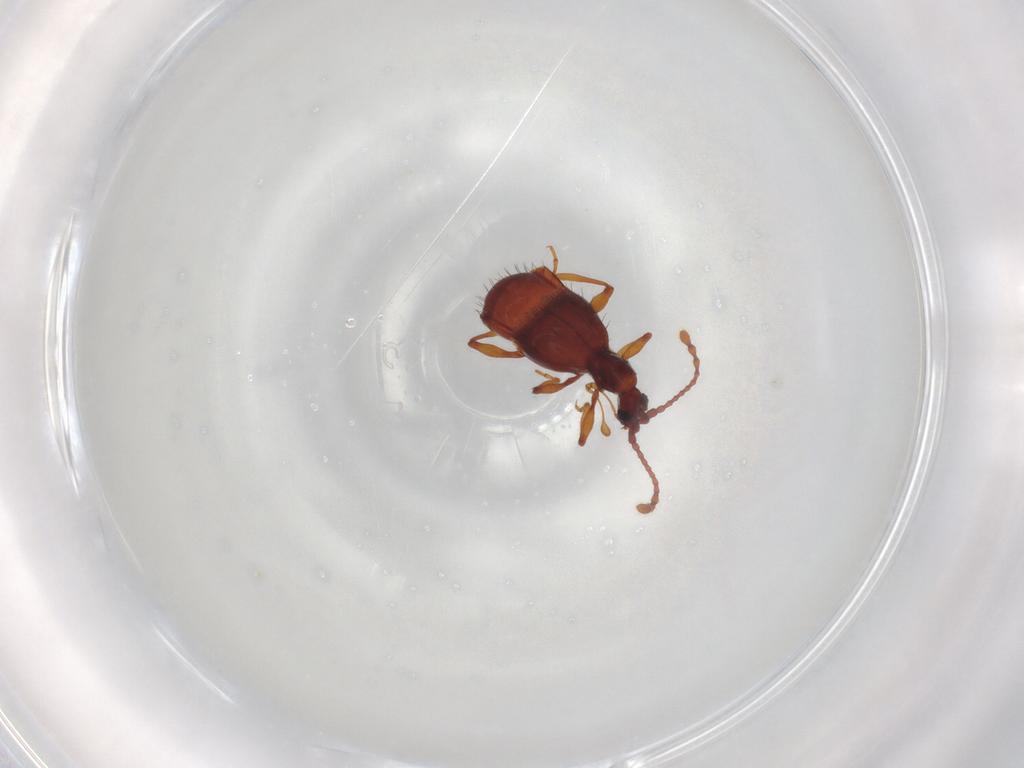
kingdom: Animalia
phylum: Arthropoda
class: Insecta
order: Coleoptera
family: Staphylinidae
